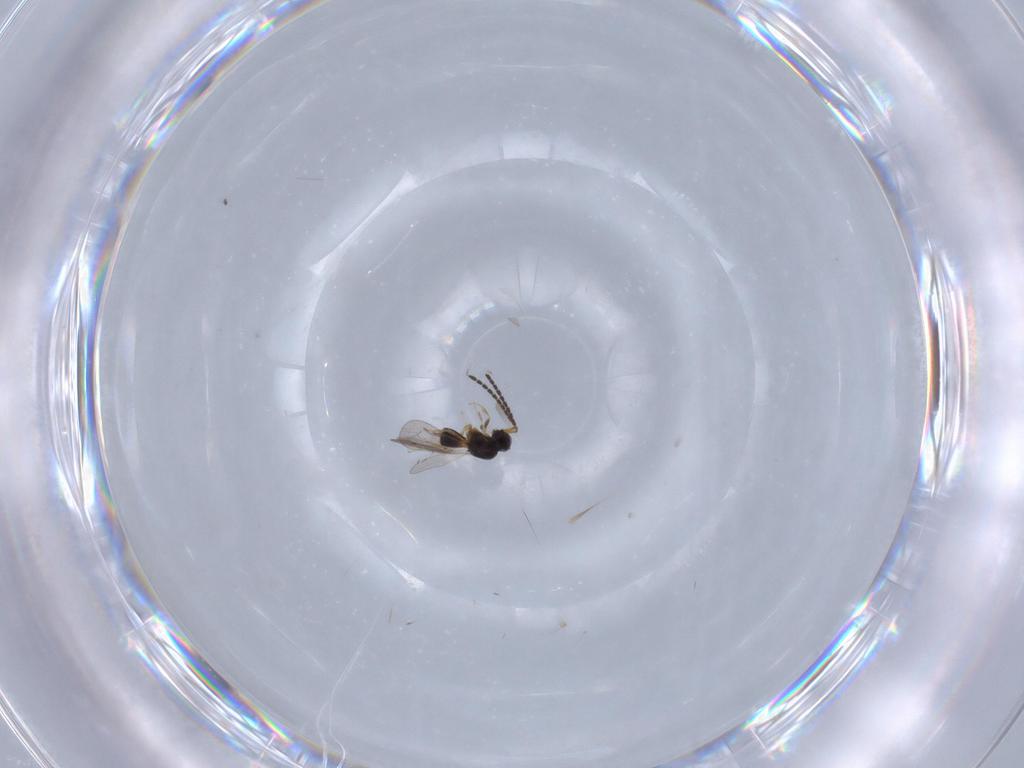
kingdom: Animalia
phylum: Arthropoda
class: Insecta
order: Hymenoptera
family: Ceraphronidae
